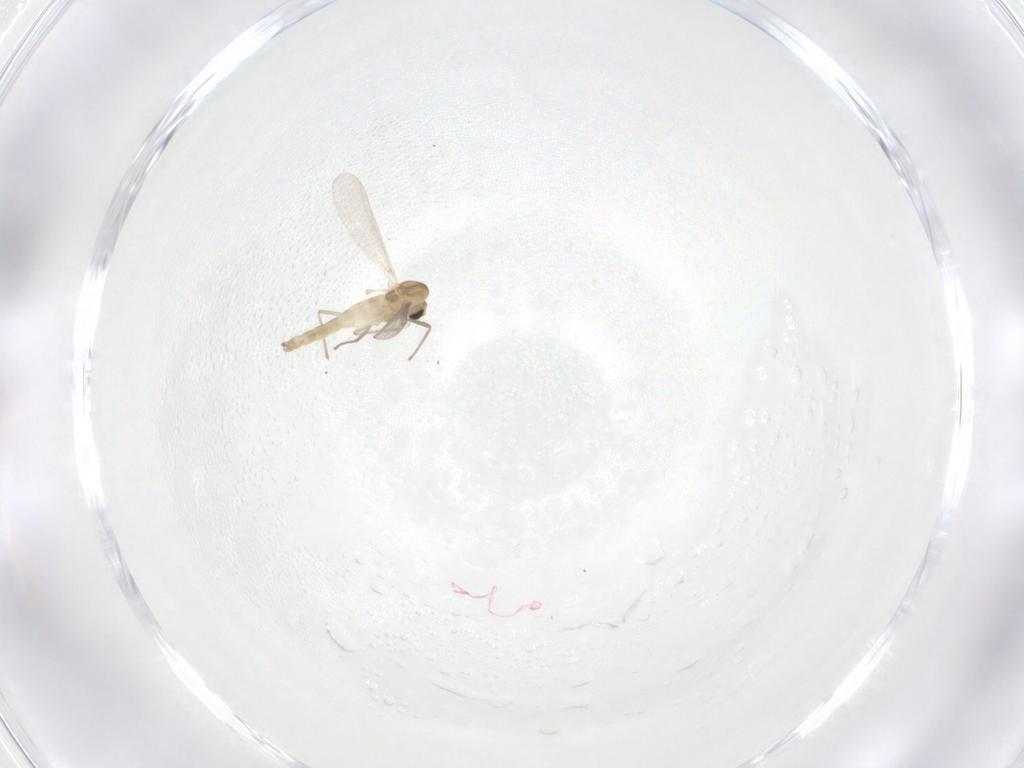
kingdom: Animalia
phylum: Arthropoda
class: Insecta
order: Diptera
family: Chironomidae
